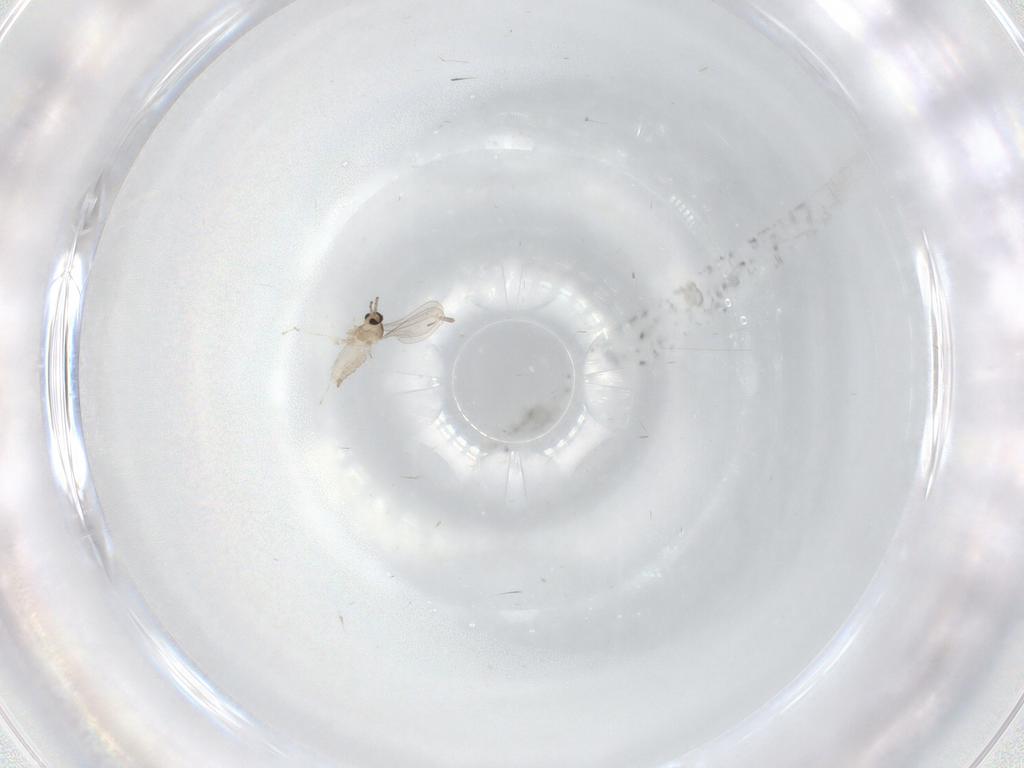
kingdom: Animalia
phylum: Arthropoda
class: Insecta
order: Diptera
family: Cecidomyiidae
